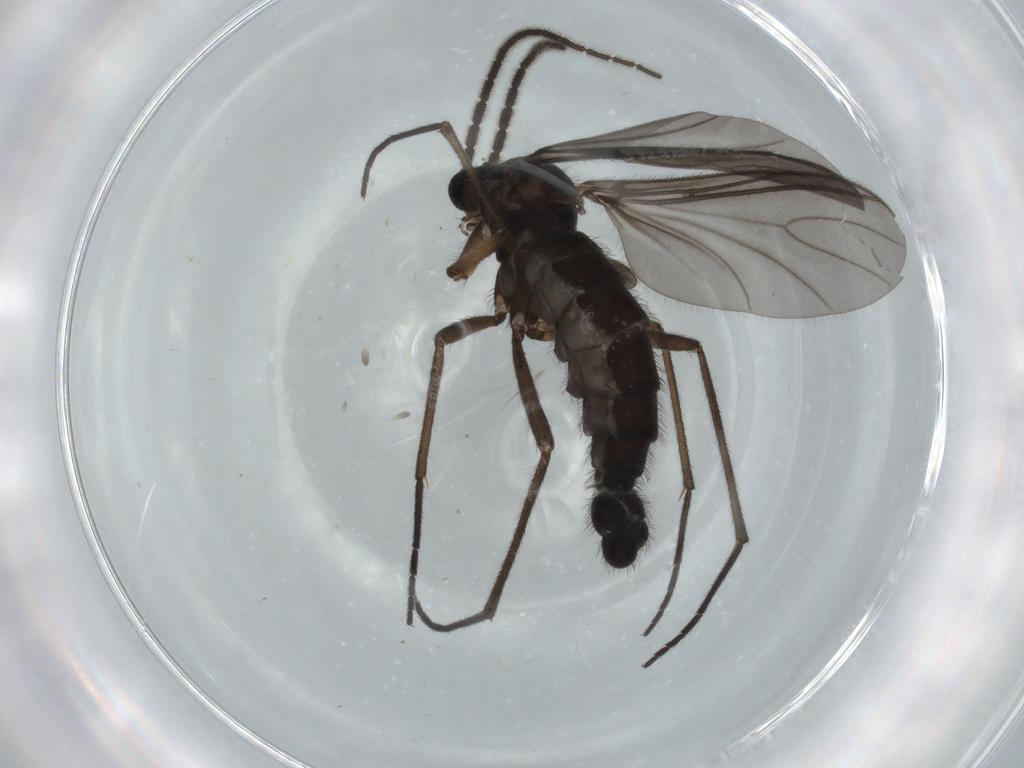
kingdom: Animalia
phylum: Arthropoda
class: Insecta
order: Diptera
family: Sciaridae
